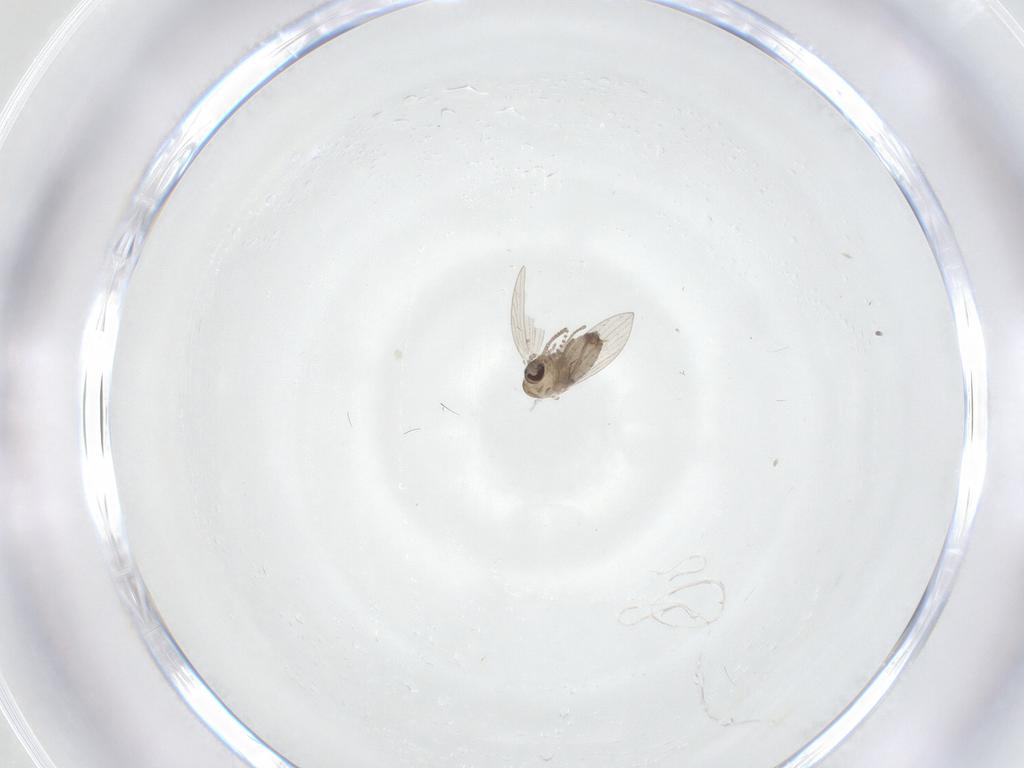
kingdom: Animalia
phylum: Arthropoda
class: Insecta
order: Diptera
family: Psychodidae
